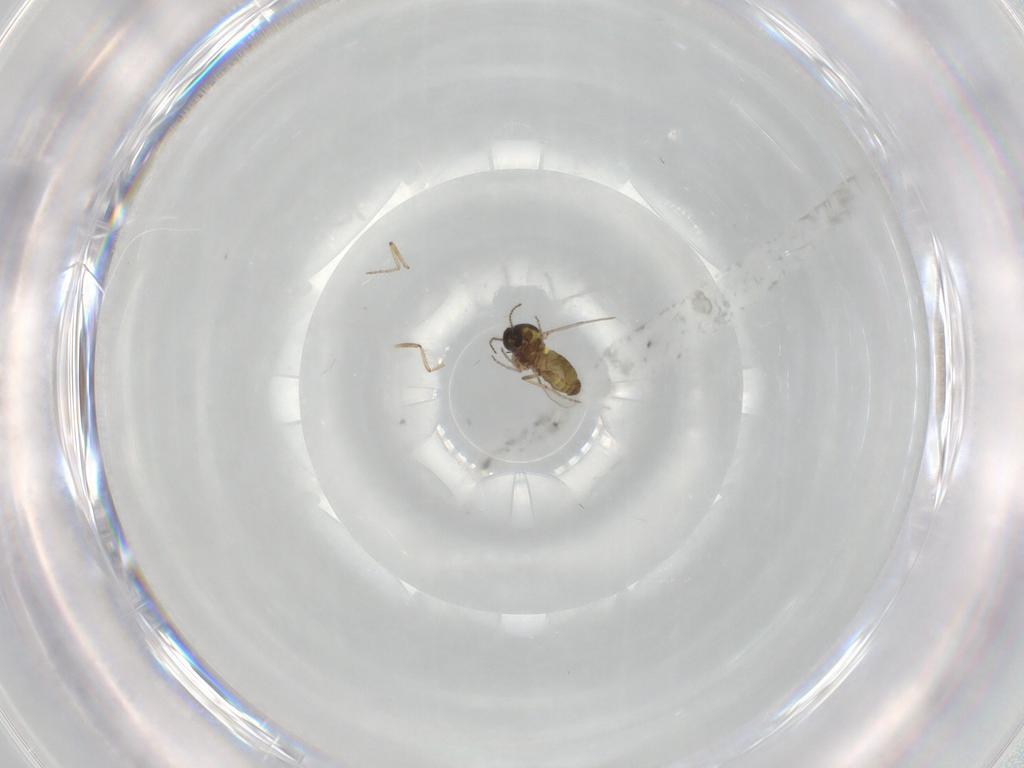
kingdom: Animalia
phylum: Arthropoda
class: Insecta
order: Diptera
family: Ceratopogonidae
